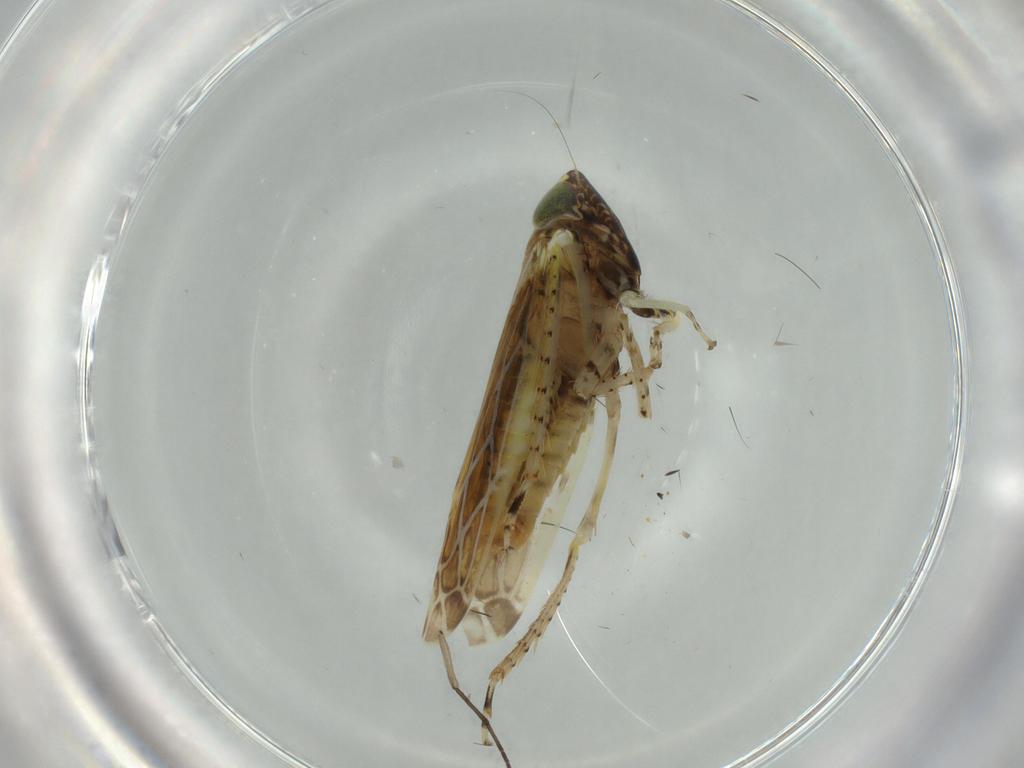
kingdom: Animalia
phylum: Arthropoda
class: Insecta
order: Hemiptera
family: Cicadellidae
